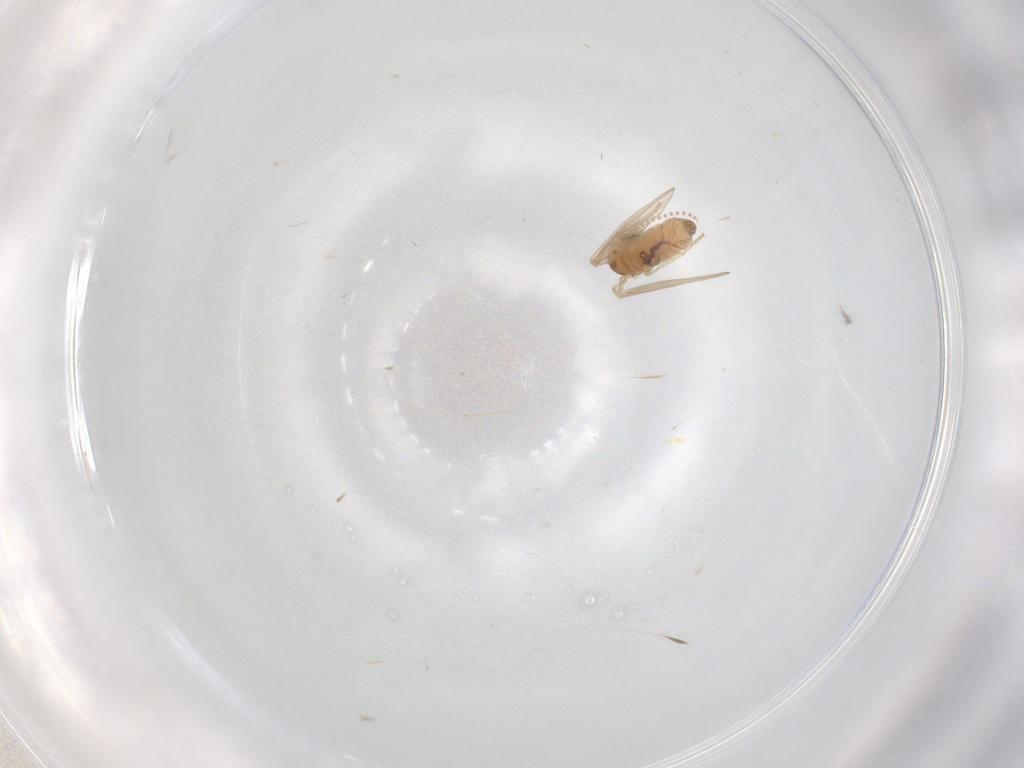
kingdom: Animalia
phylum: Arthropoda
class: Insecta
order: Diptera
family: Psychodidae
